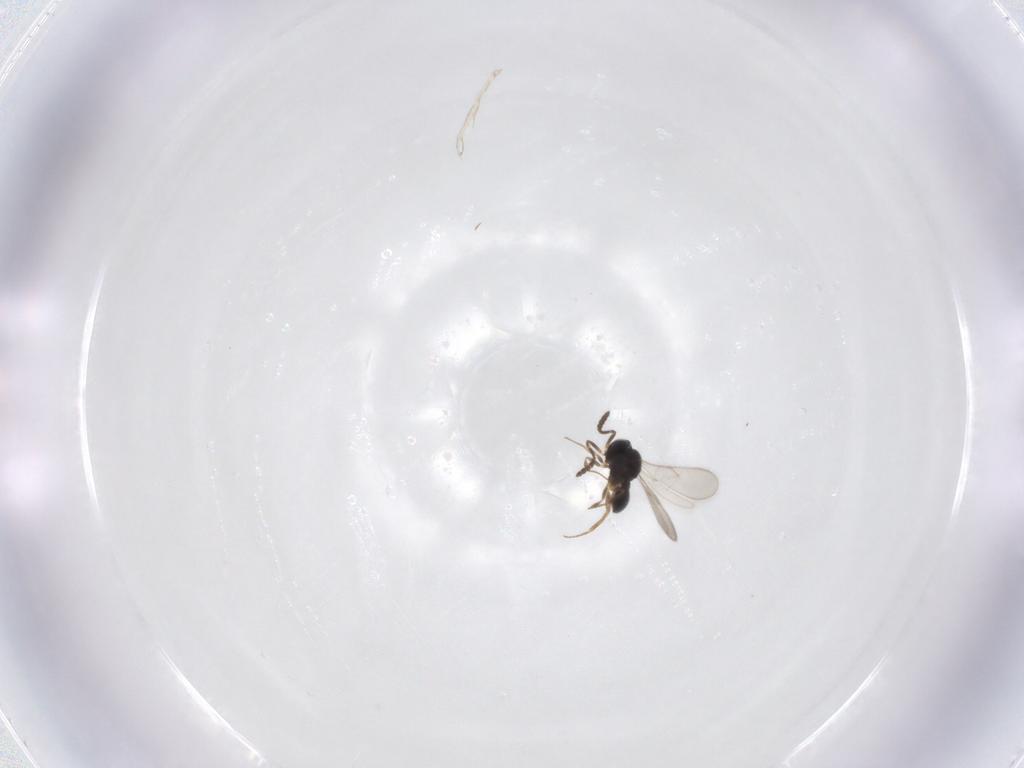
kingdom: Animalia
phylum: Arthropoda
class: Insecta
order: Hymenoptera
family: Scelionidae
